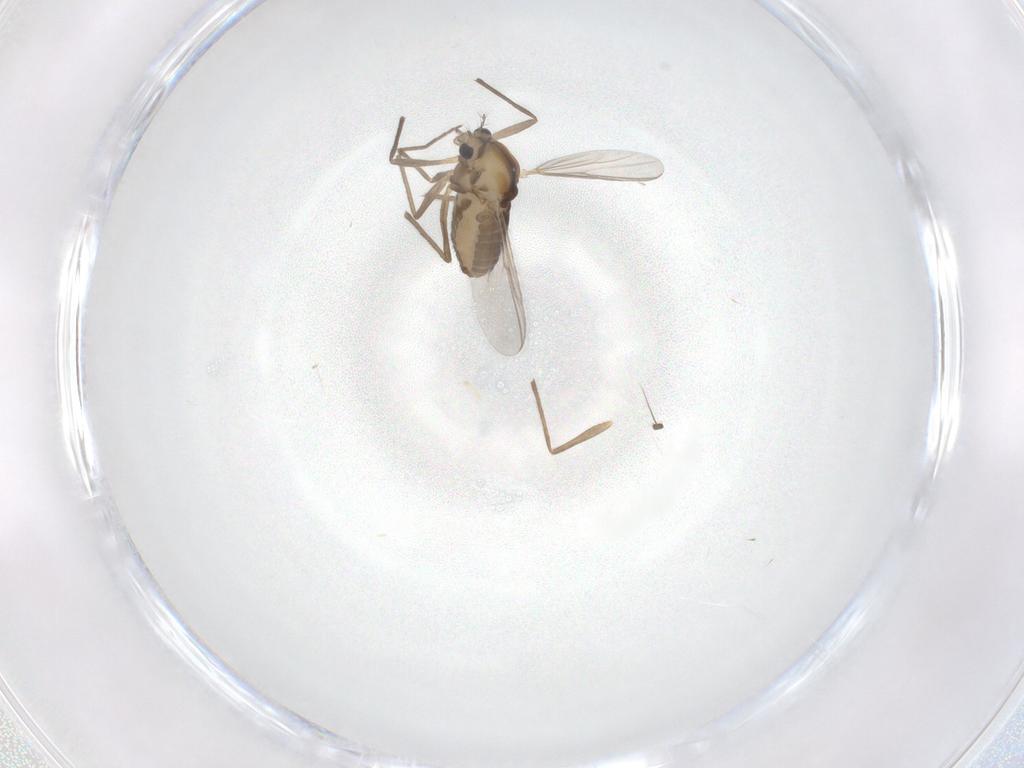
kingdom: Animalia
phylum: Arthropoda
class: Insecta
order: Diptera
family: Chironomidae
